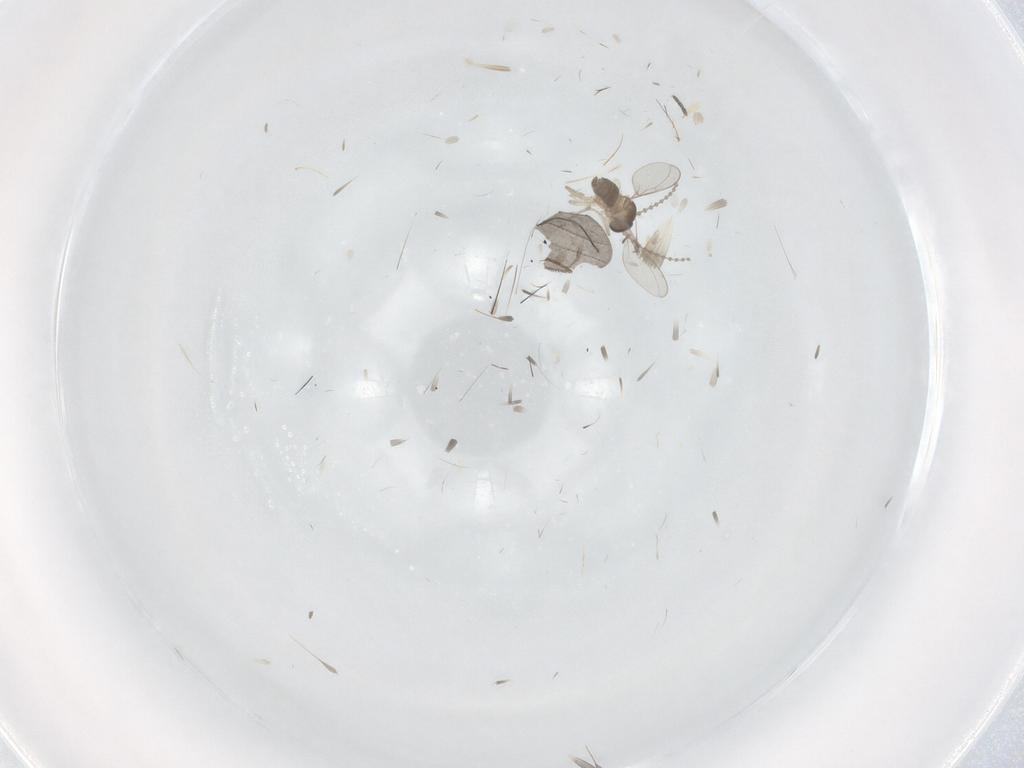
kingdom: Animalia
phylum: Arthropoda
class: Insecta
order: Diptera
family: Cecidomyiidae
